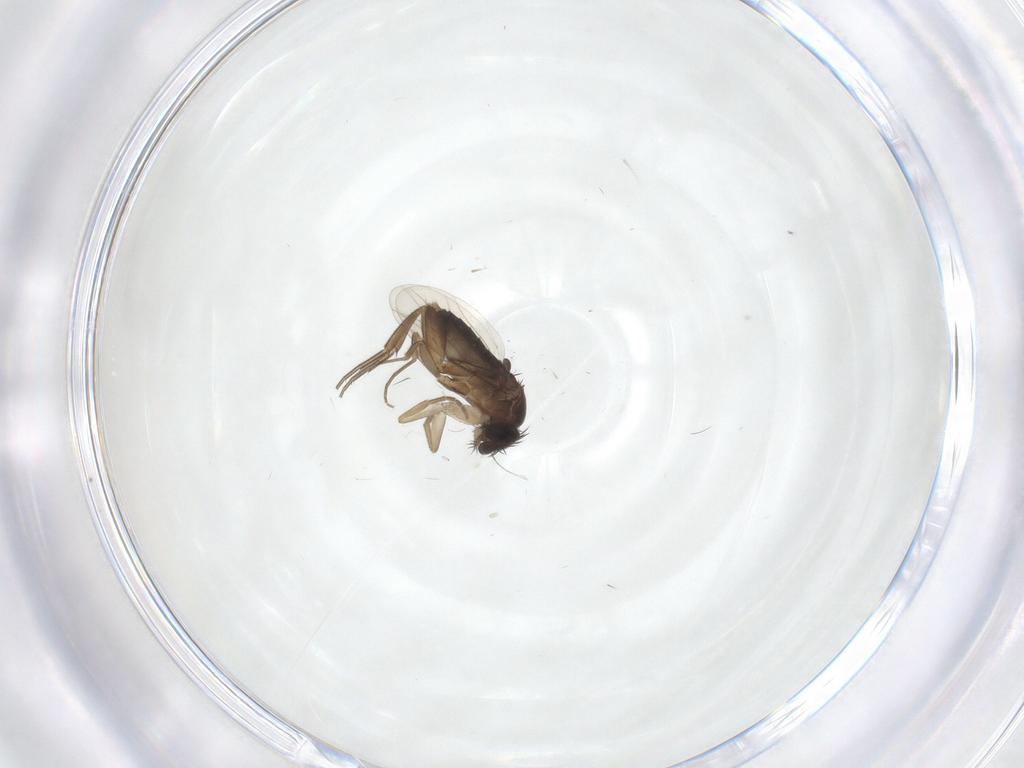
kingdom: Animalia
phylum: Arthropoda
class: Insecta
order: Diptera
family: Phoridae
